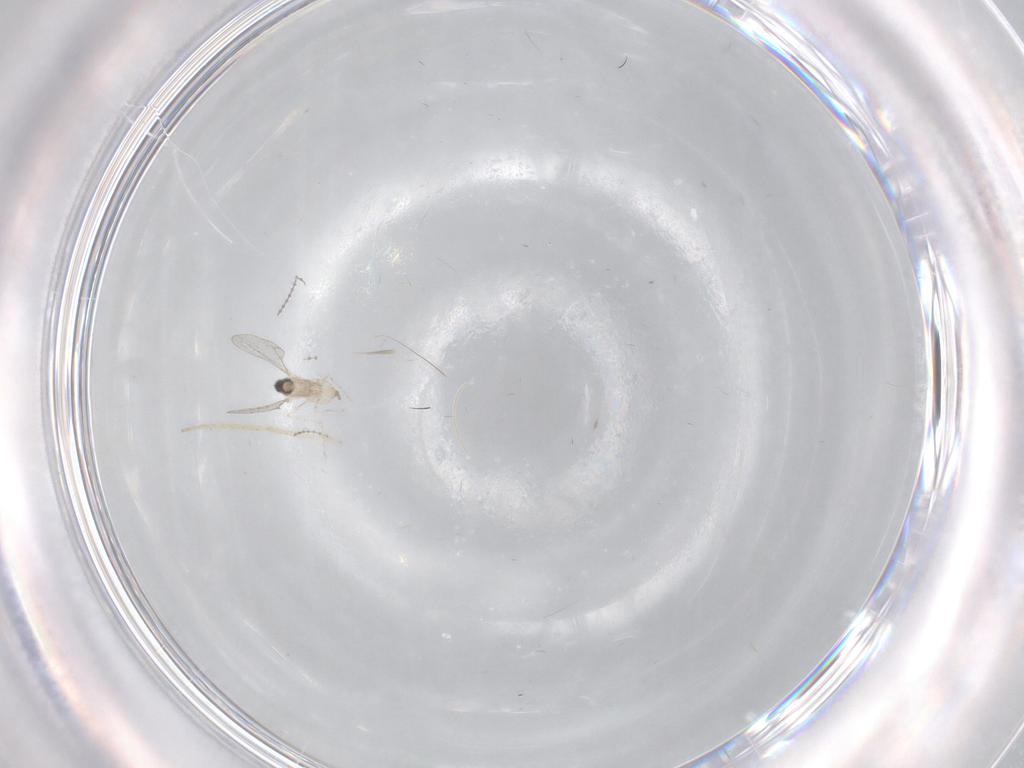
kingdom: Animalia
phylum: Arthropoda
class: Insecta
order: Diptera
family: Cecidomyiidae
